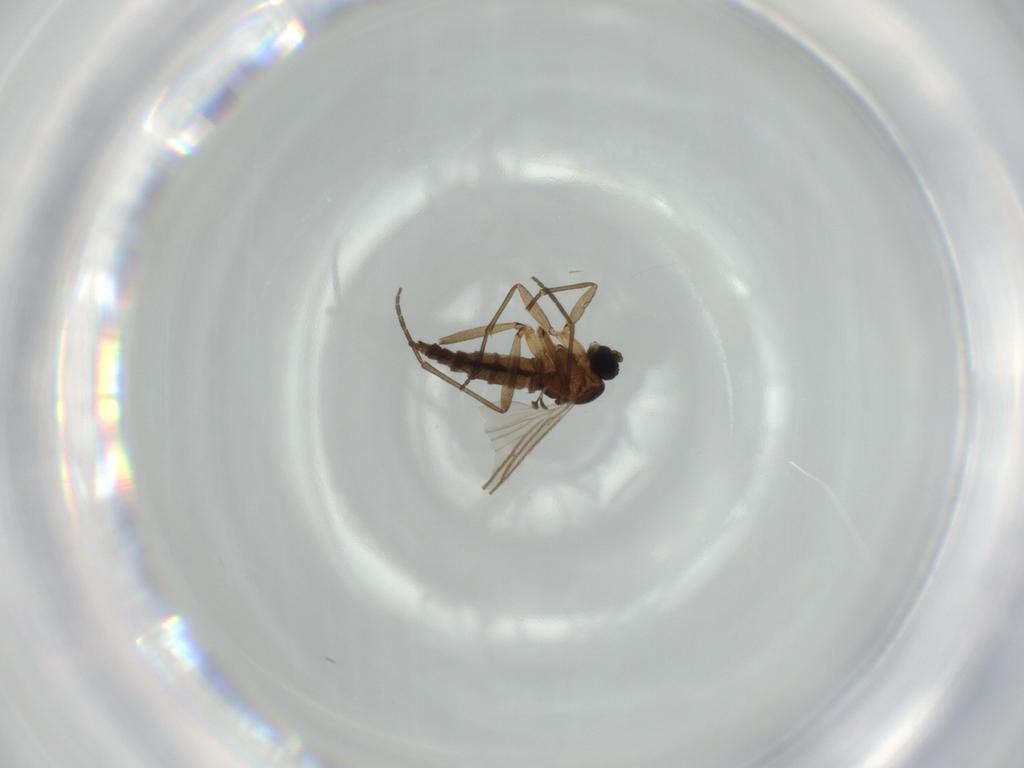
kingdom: Animalia
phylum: Arthropoda
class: Insecta
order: Diptera
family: Sciaridae
